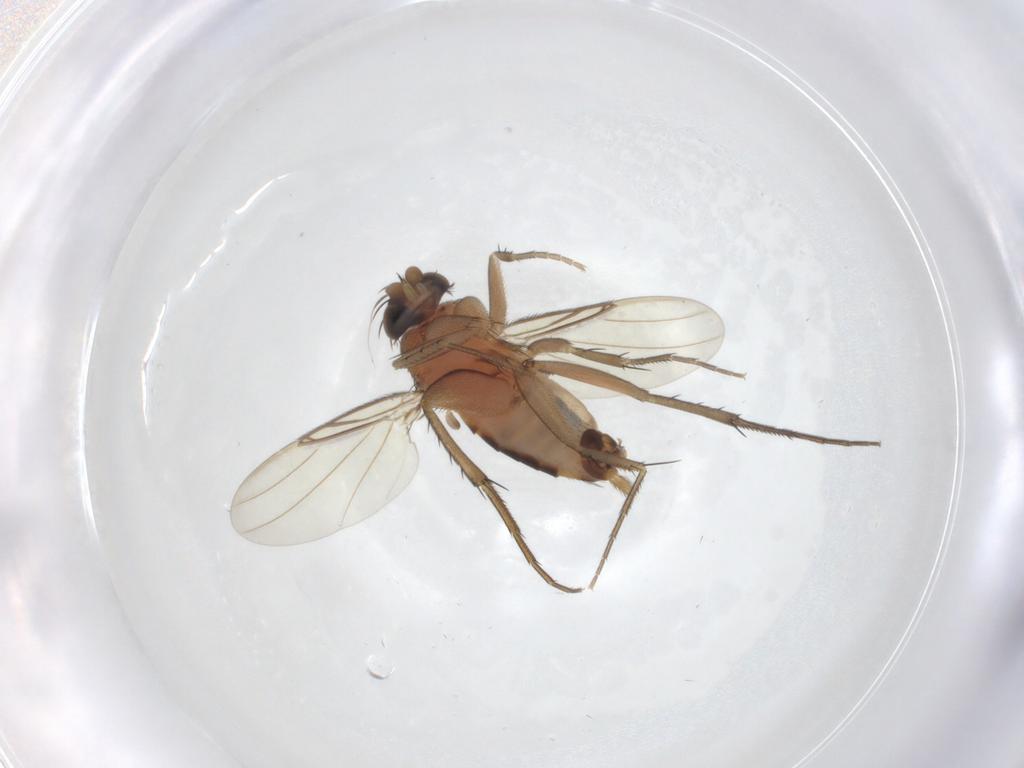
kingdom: Animalia
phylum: Arthropoda
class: Insecta
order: Diptera
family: Phoridae
